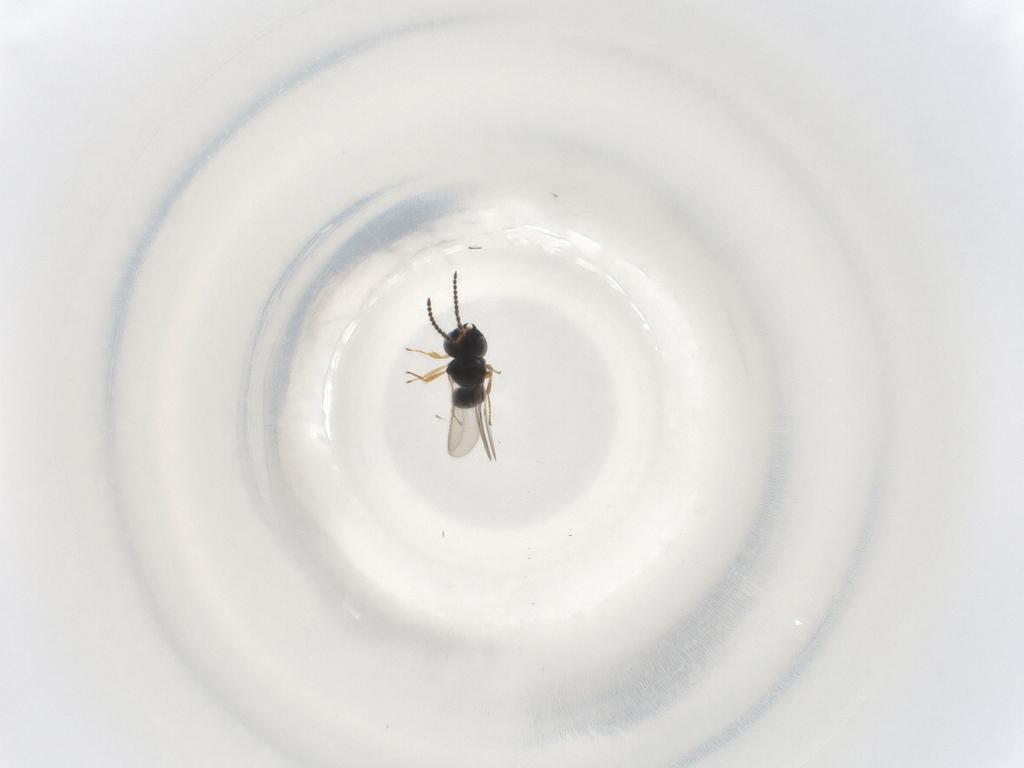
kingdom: Animalia
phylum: Arthropoda
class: Insecta
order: Hymenoptera
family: Scelionidae
